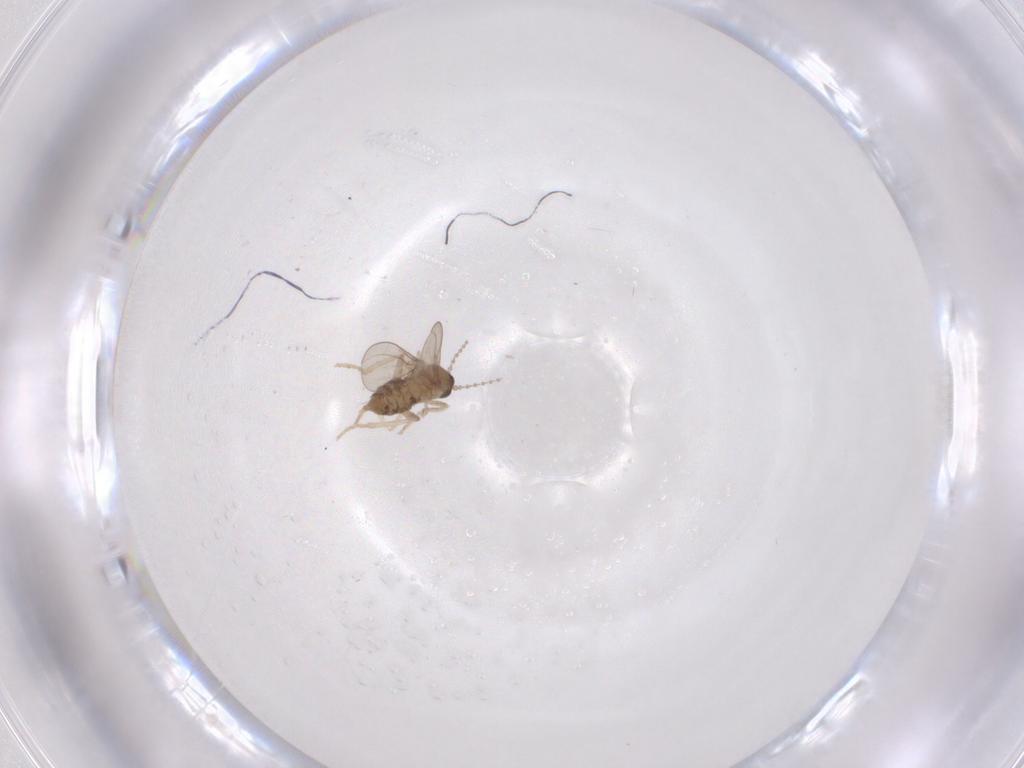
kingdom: Animalia
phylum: Arthropoda
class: Insecta
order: Diptera
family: Cecidomyiidae
